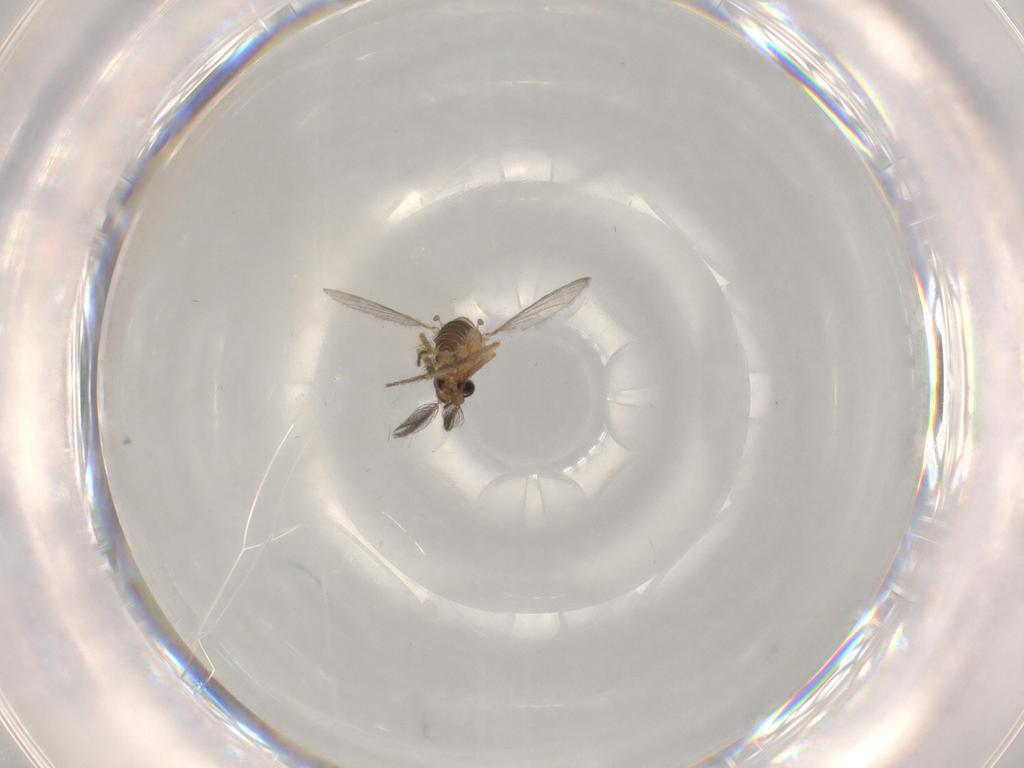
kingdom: Animalia
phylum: Arthropoda
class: Insecta
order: Diptera
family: Ceratopogonidae
